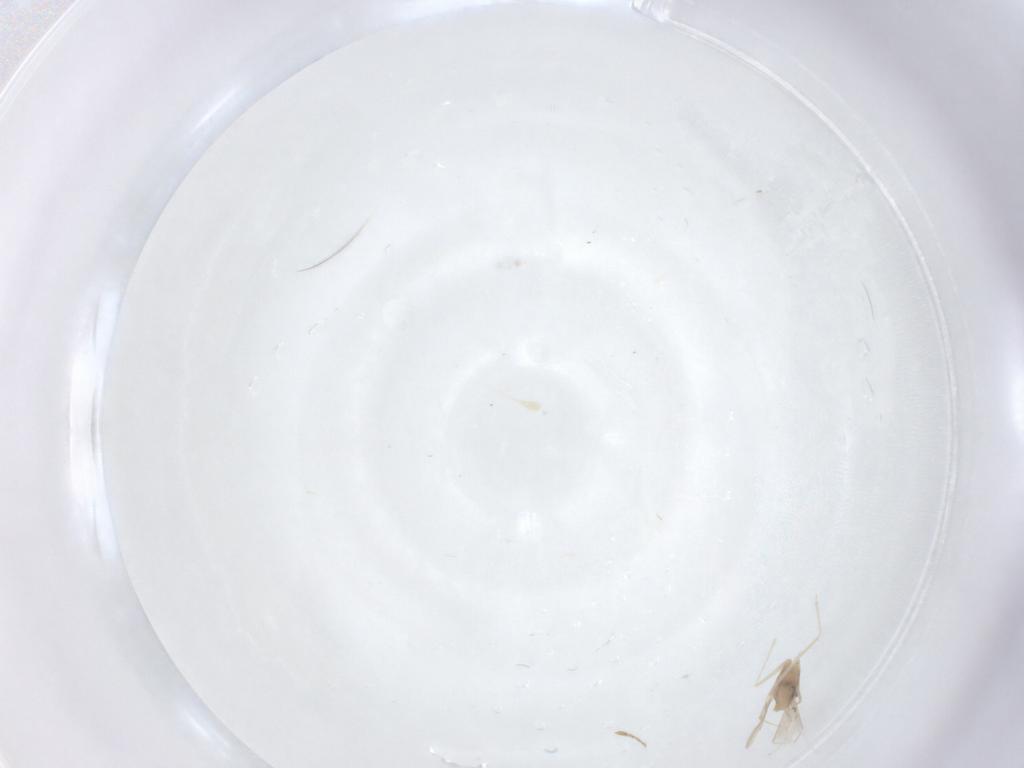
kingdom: Animalia
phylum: Arthropoda
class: Insecta
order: Diptera
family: Cecidomyiidae
